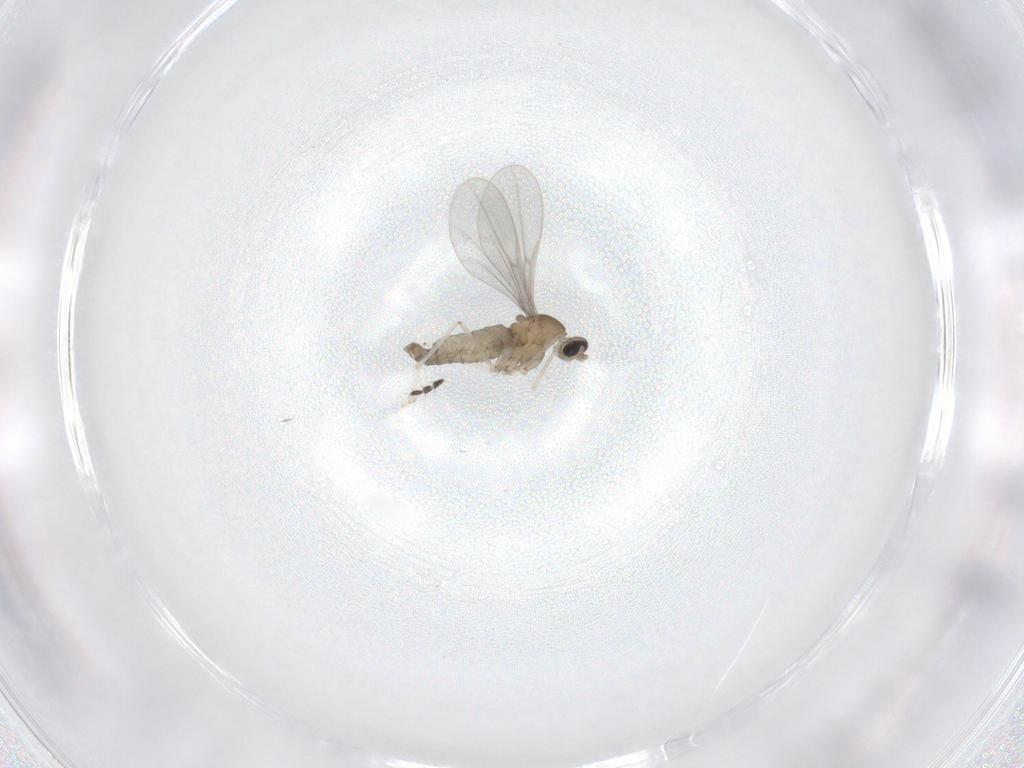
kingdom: Animalia
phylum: Arthropoda
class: Insecta
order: Diptera
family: Cecidomyiidae
